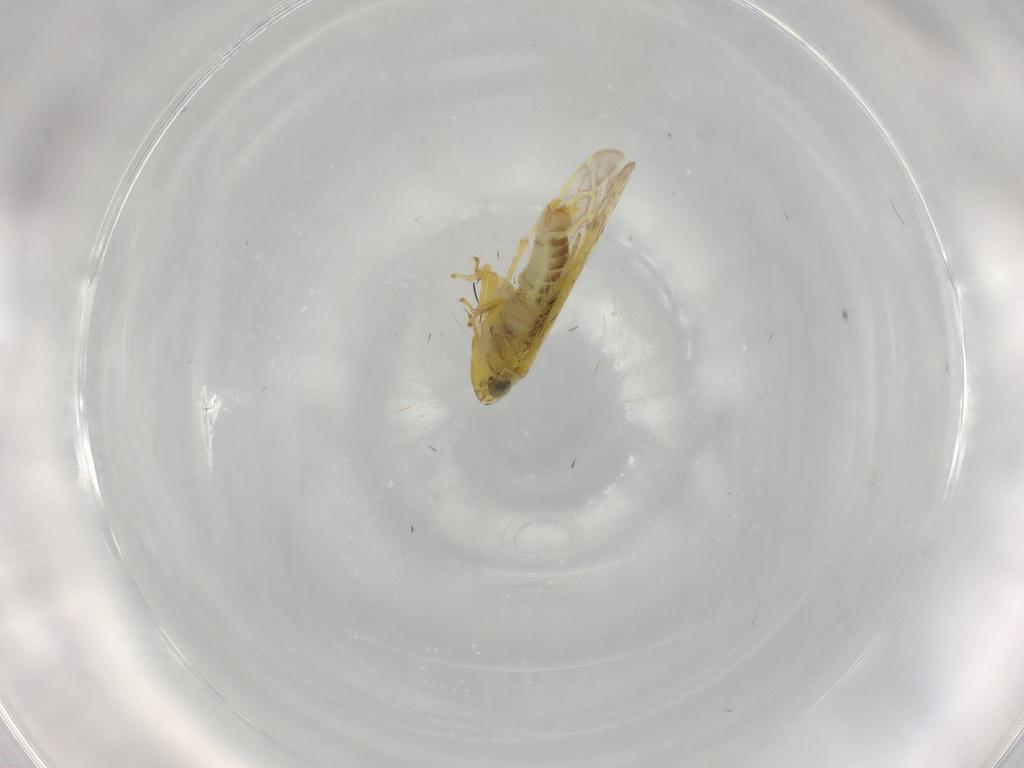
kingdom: Animalia
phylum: Arthropoda
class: Insecta
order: Hemiptera
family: Cicadellidae
